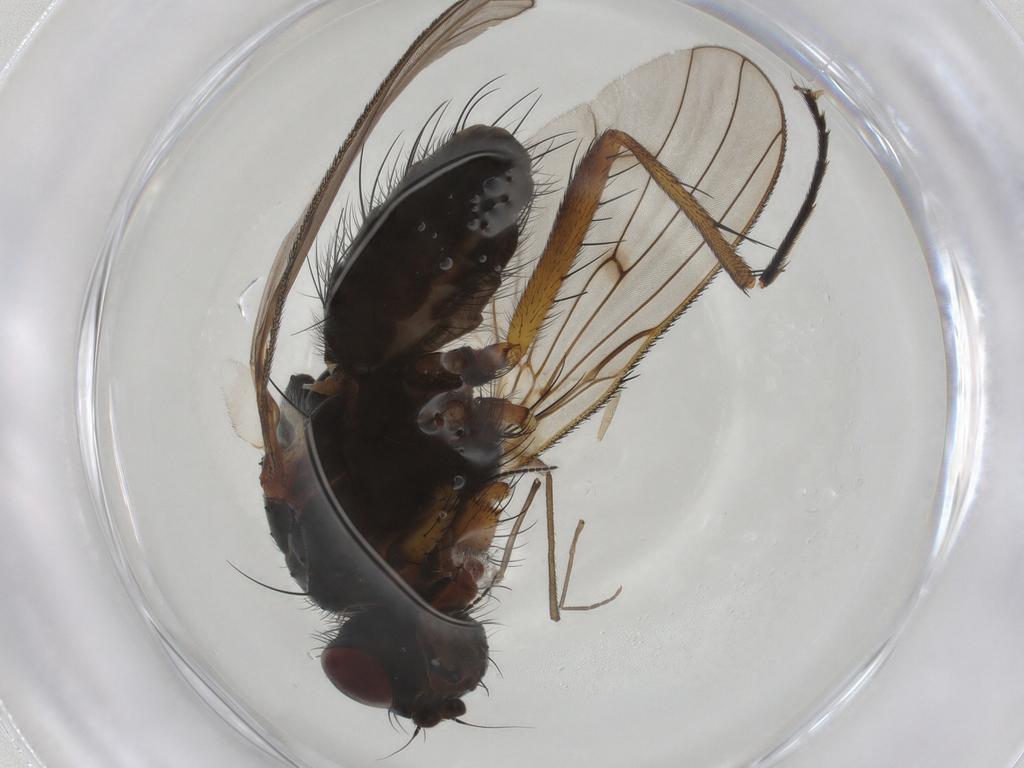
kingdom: Animalia
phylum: Arthropoda
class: Insecta
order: Diptera
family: Anthomyiidae
